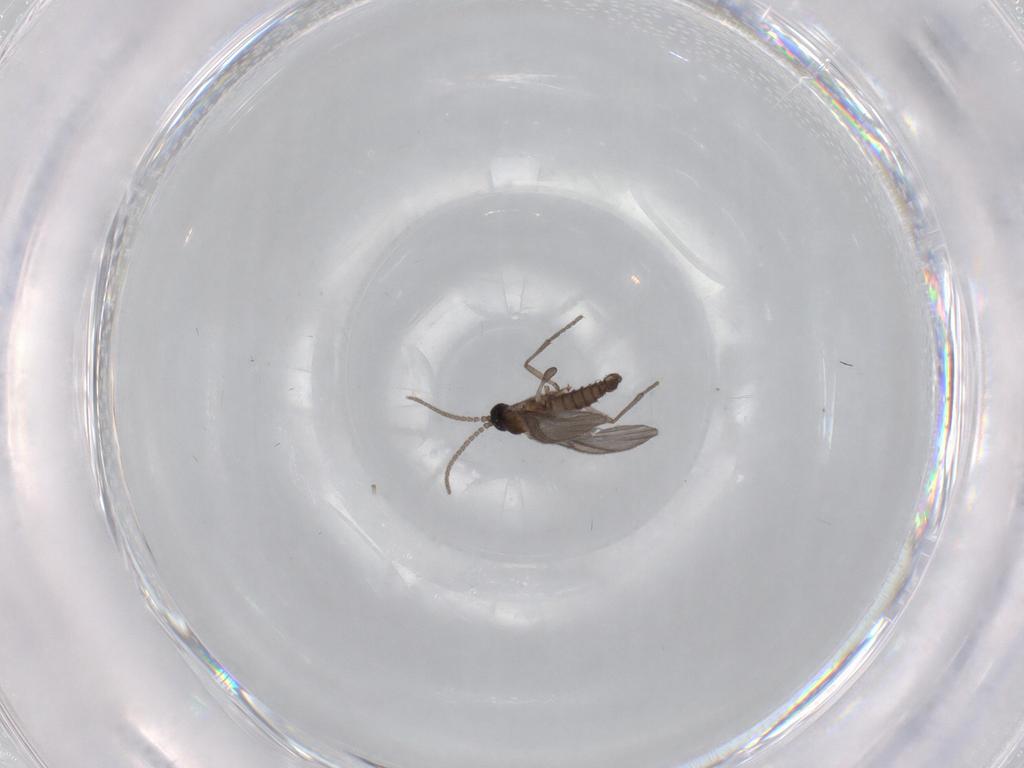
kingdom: Animalia
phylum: Arthropoda
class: Insecta
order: Diptera
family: Sciaridae
